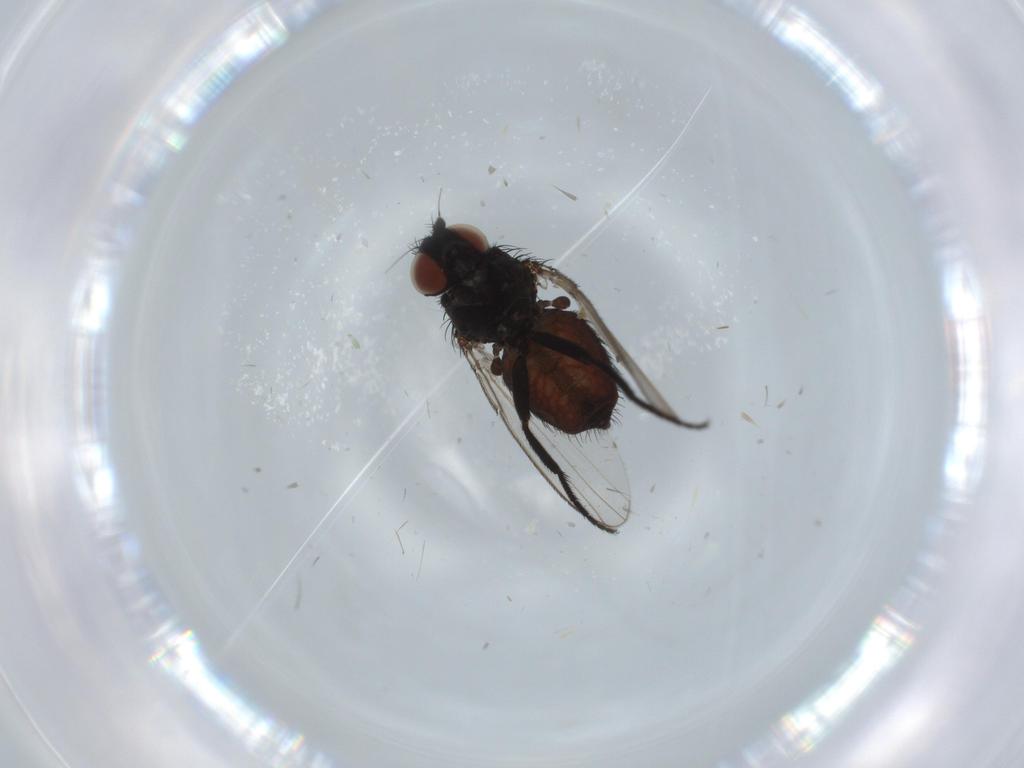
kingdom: Animalia
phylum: Arthropoda
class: Insecta
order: Diptera
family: Milichiidae
